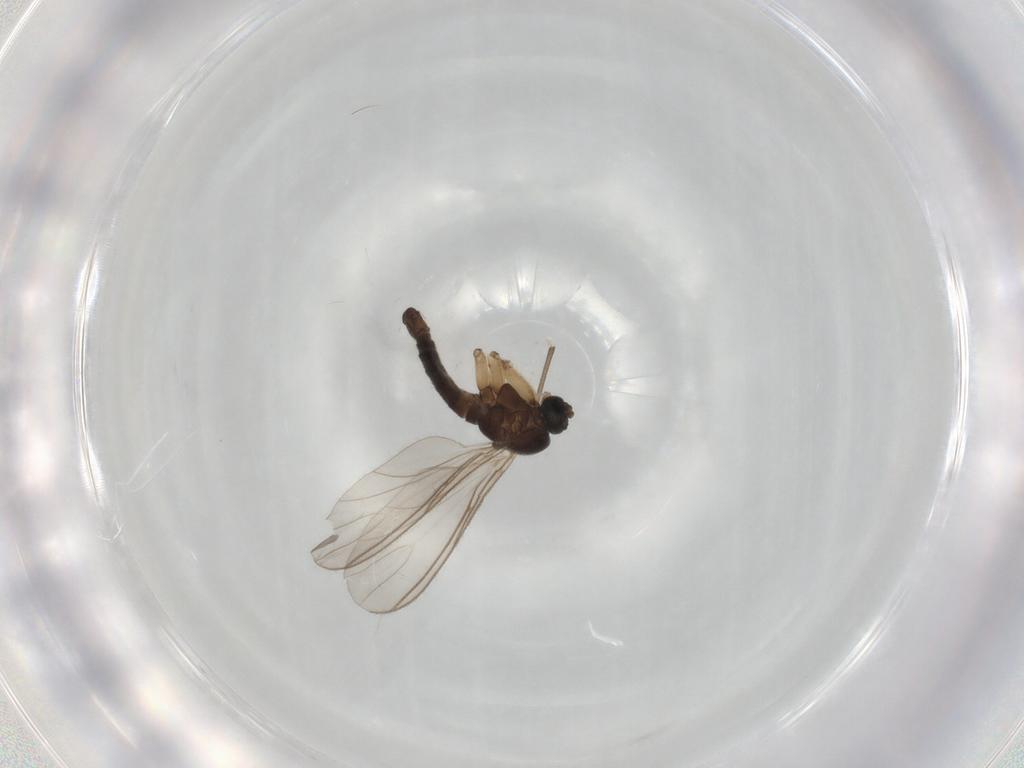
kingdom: Animalia
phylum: Arthropoda
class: Insecta
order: Diptera
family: Sciaridae
